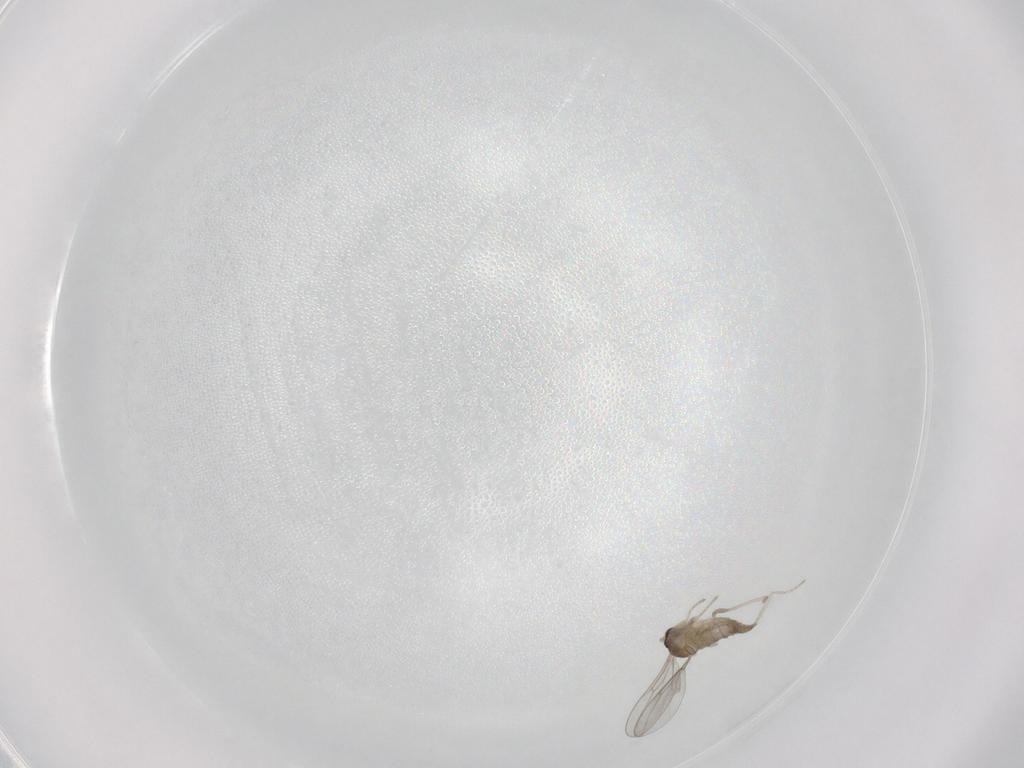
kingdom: Animalia
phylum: Arthropoda
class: Insecta
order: Diptera
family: Cecidomyiidae
